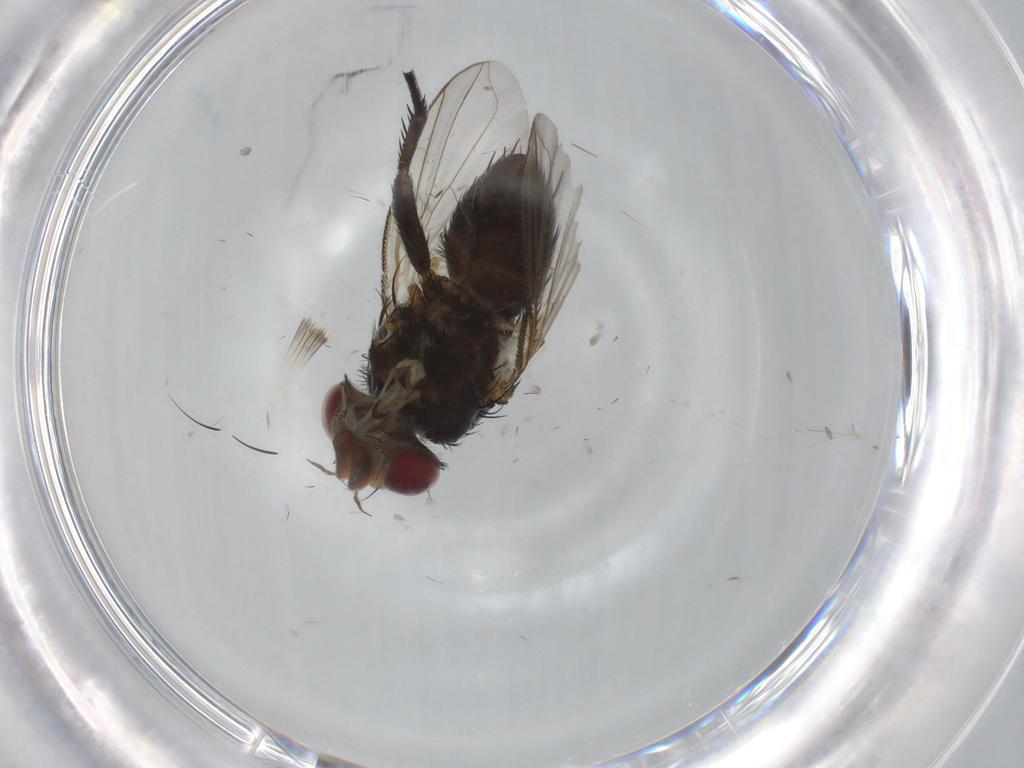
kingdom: Animalia
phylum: Arthropoda
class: Insecta
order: Diptera
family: Tachinidae
